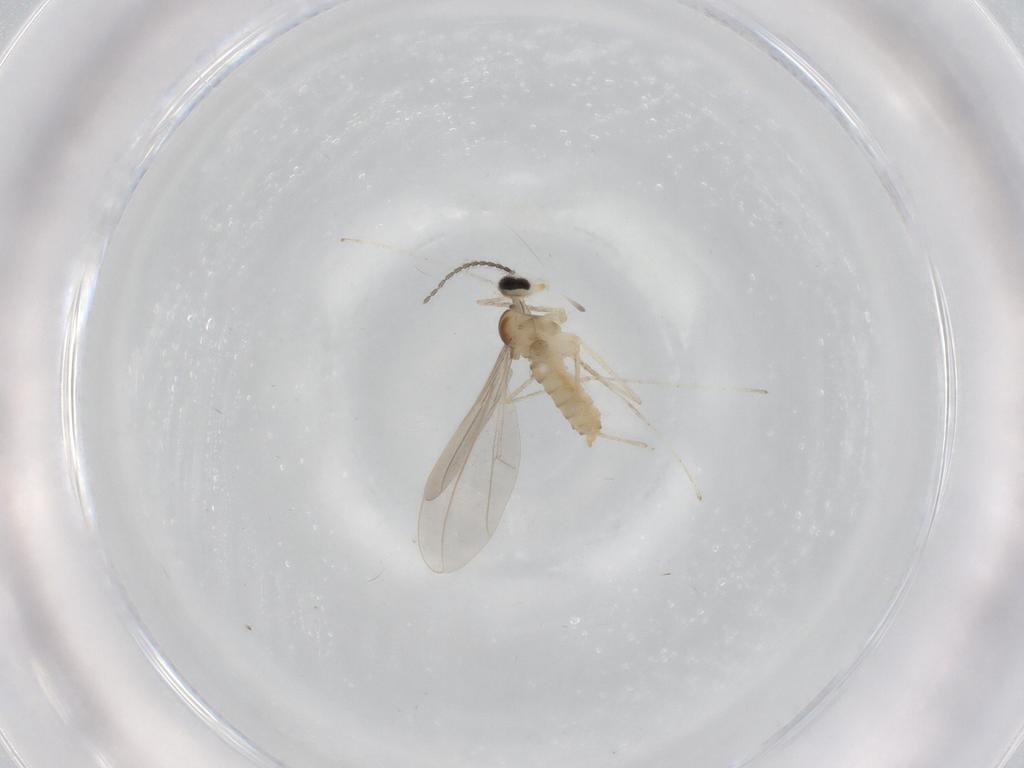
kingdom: Animalia
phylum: Arthropoda
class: Insecta
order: Diptera
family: Cecidomyiidae
